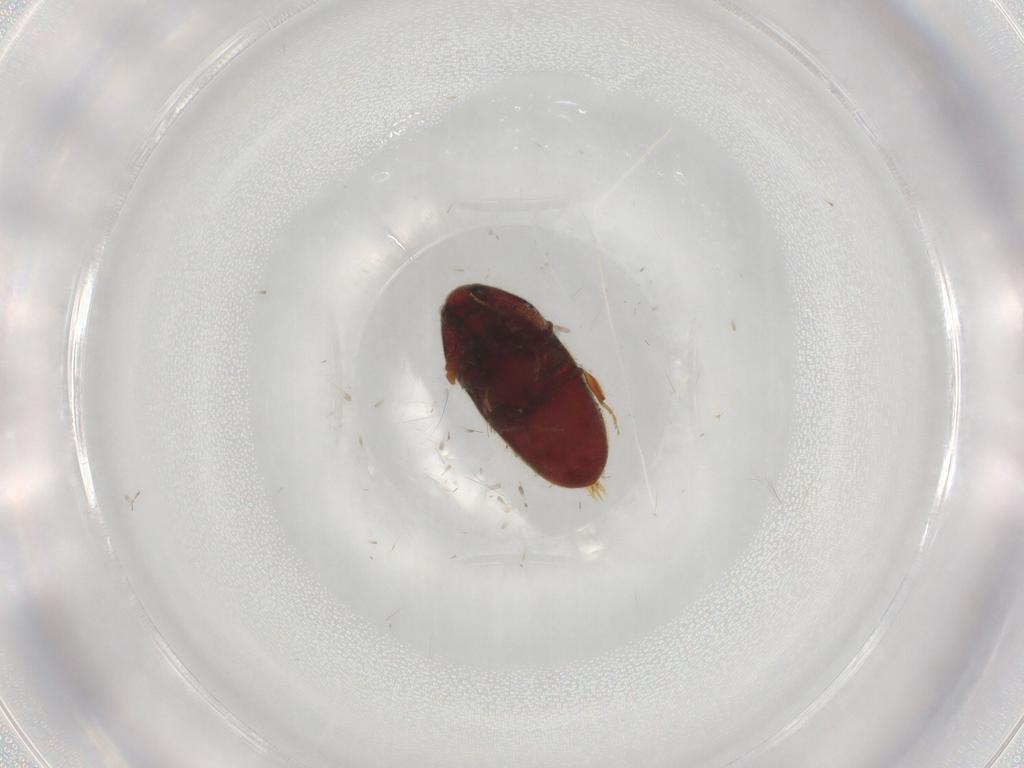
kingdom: Animalia
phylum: Arthropoda
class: Insecta
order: Coleoptera
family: Throscidae
